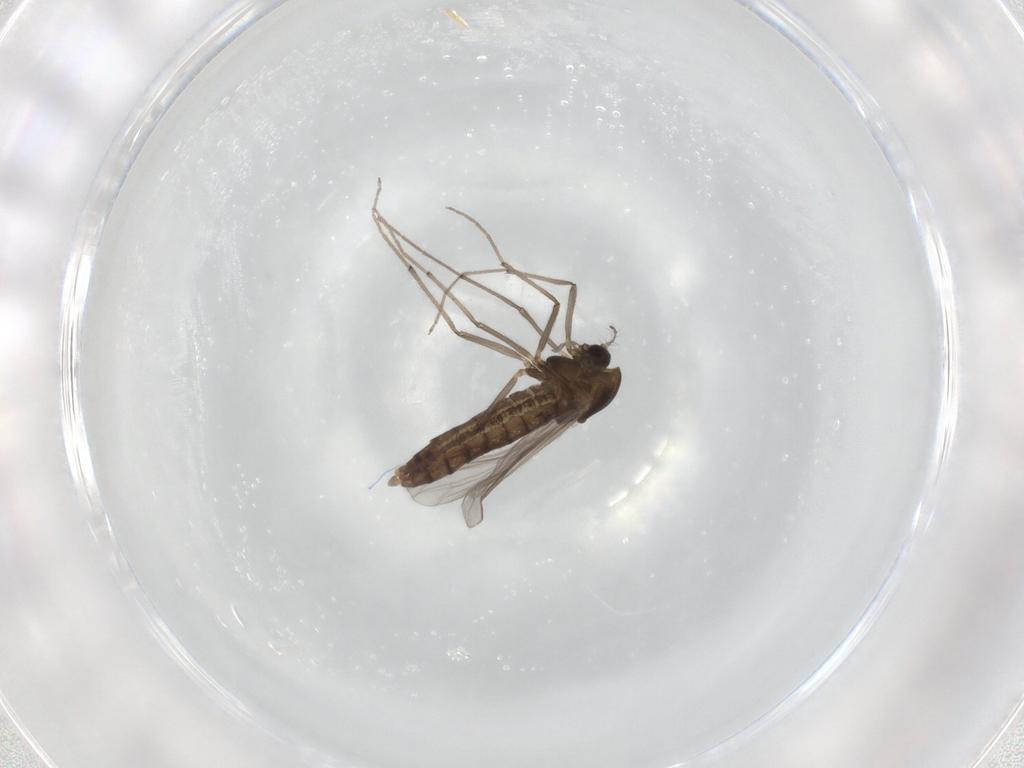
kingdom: Animalia
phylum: Arthropoda
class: Insecta
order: Diptera
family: Chironomidae
